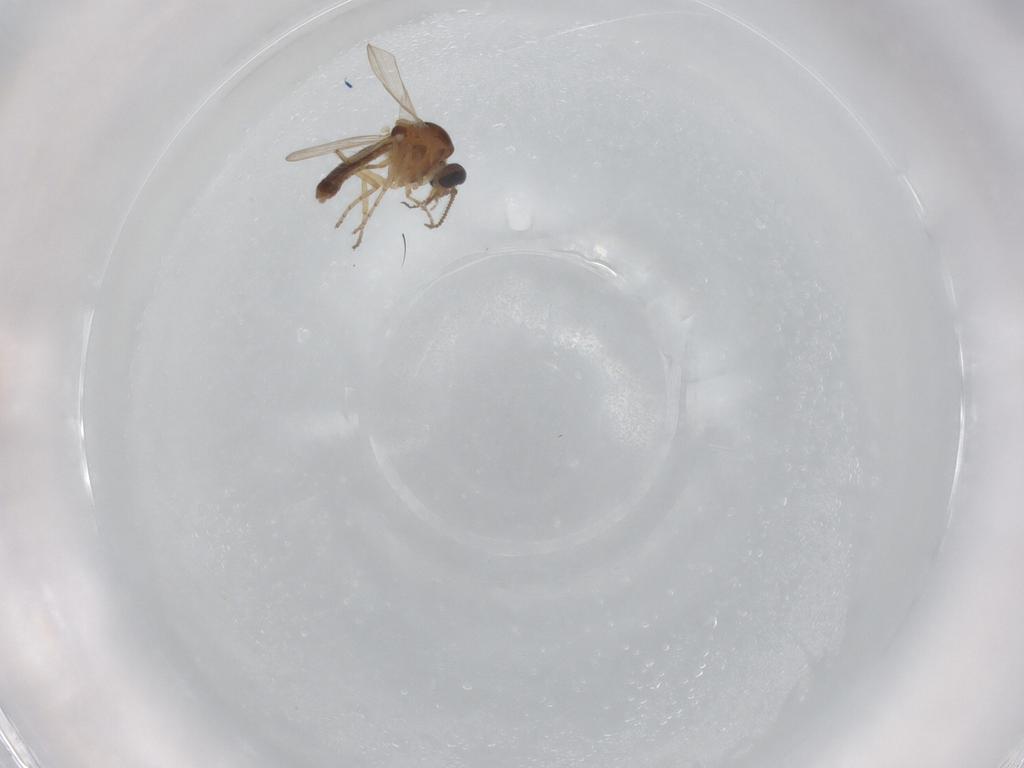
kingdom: Animalia
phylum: Arthropoda
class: Insecta
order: Diptera
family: Ceratopogonidae
